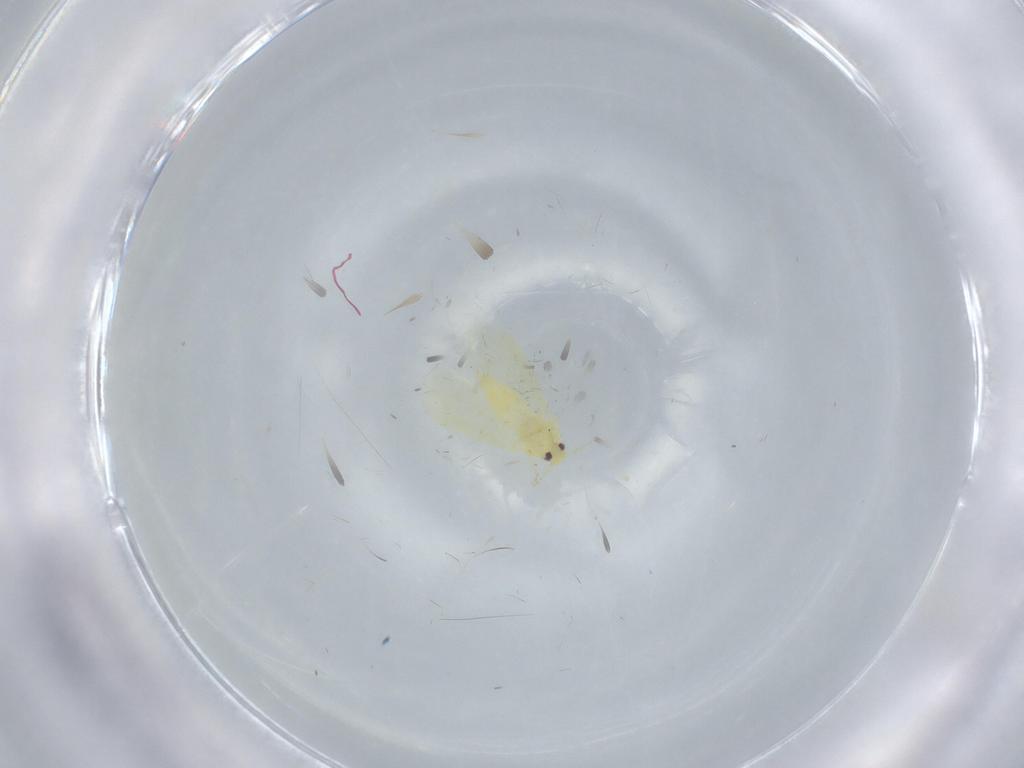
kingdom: Animalia
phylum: Arthropoda
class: Insecta
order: Hemiptera
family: Aleyrodidae
